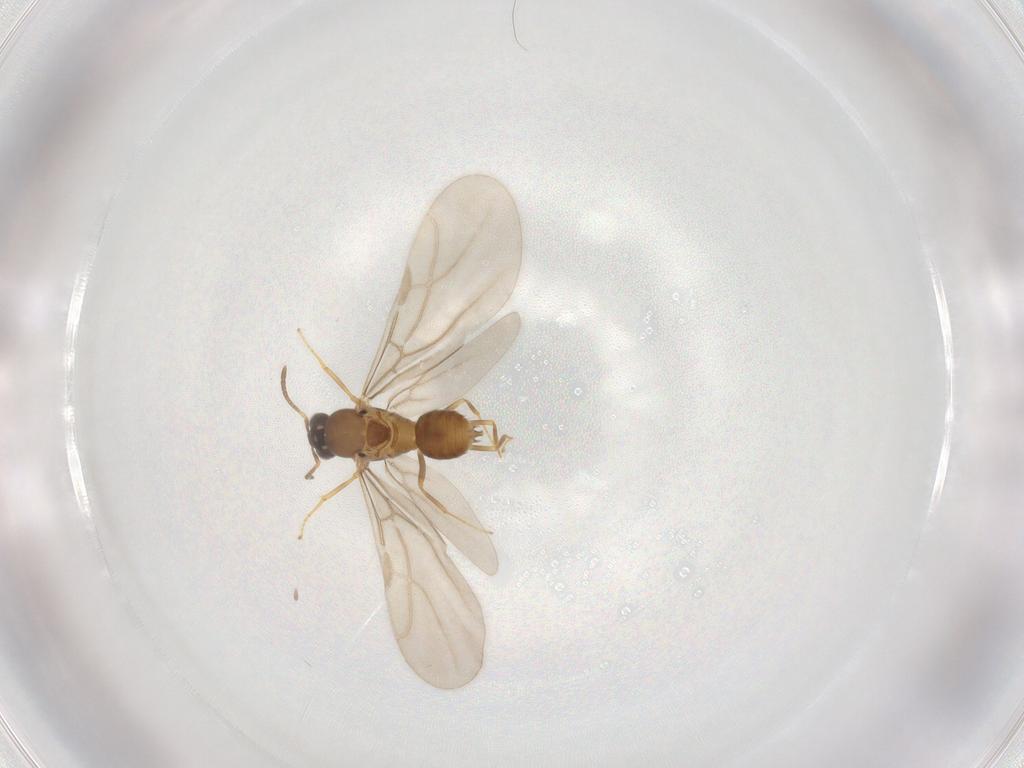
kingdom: Animalia
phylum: Arthropoda
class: Insecta
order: Hymenoptera
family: Formicidae
